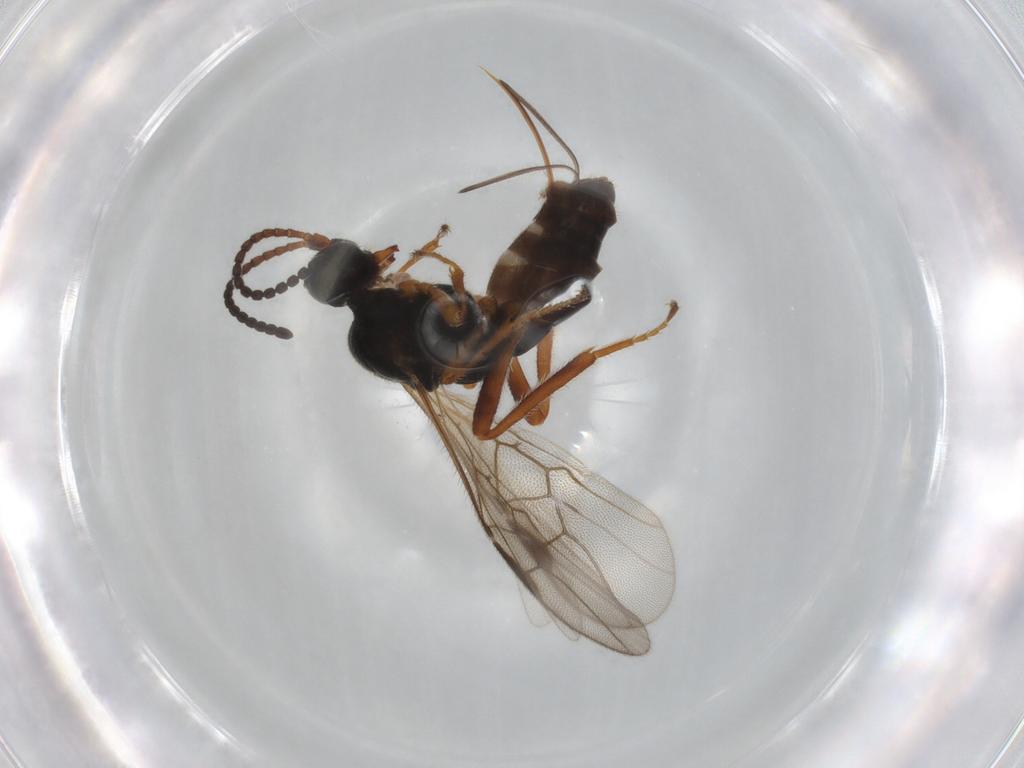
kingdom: Animalia
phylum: Arthropoda
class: Insecta
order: Hymenoptera
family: Braconidae
